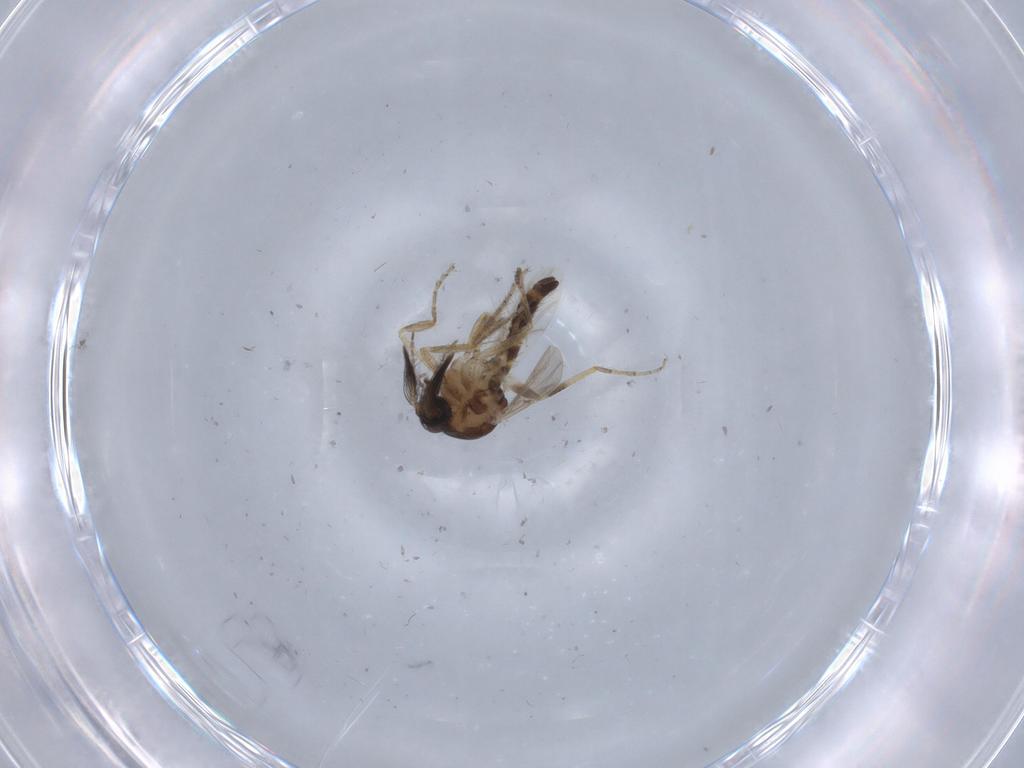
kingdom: Animalia
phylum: Arthropoda
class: Insecta
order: Diptera
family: Ceratopogonidae
